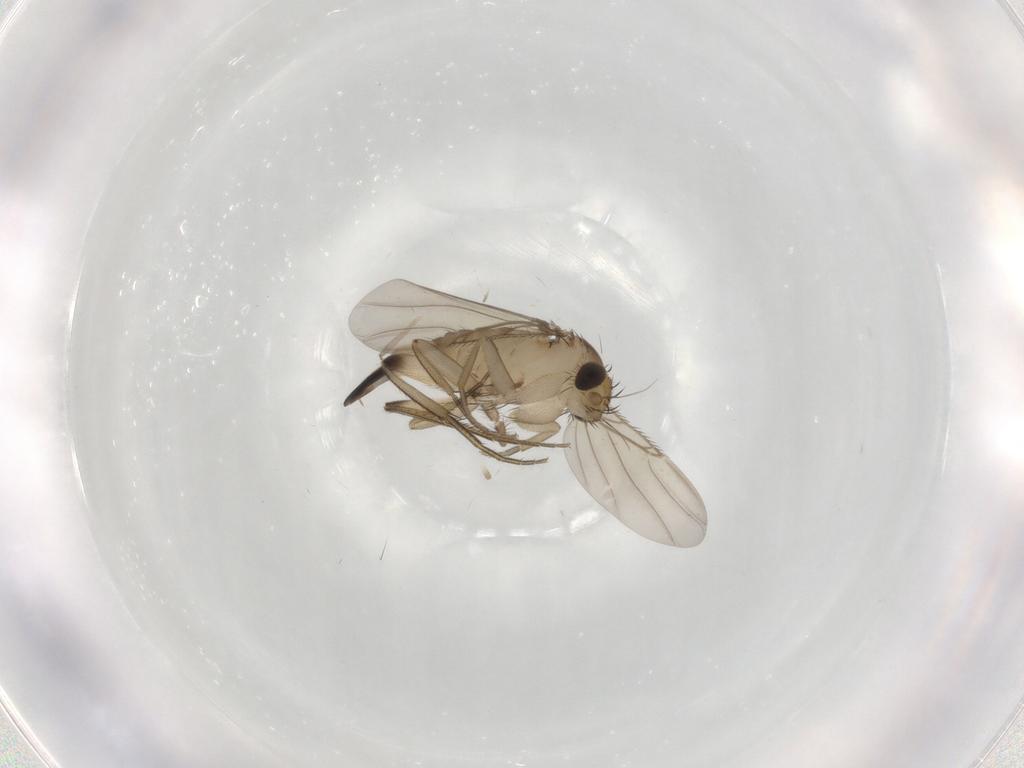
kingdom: Animalia
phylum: Arthropoda
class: Insecta
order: Diptera
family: Limoniidae
